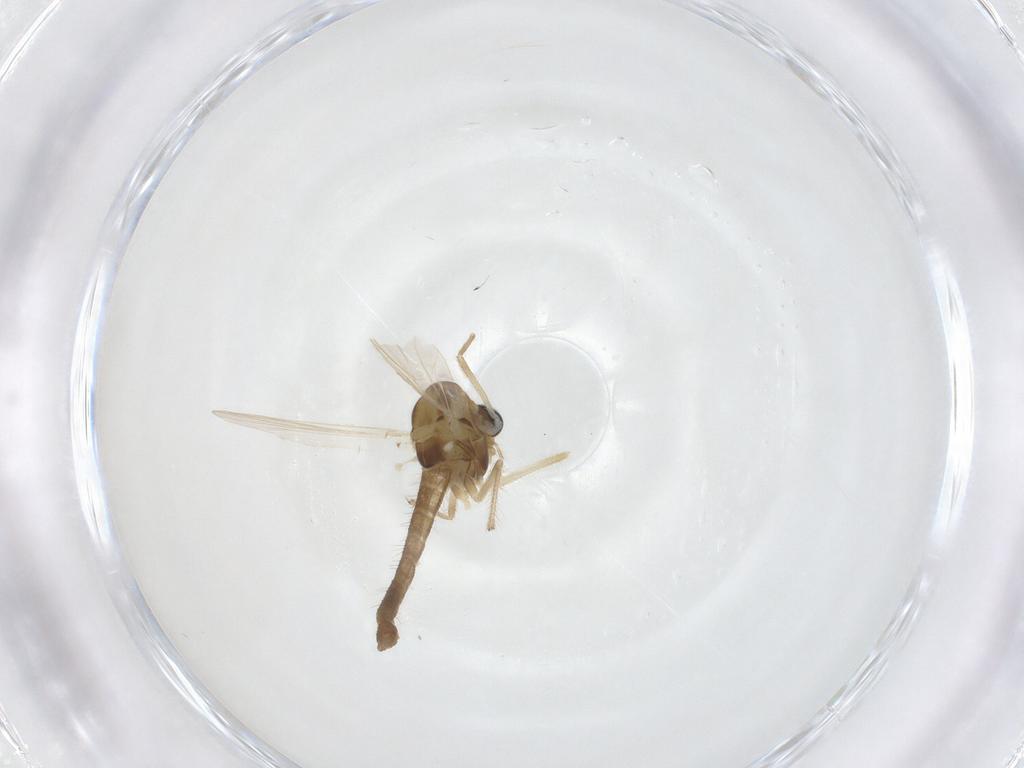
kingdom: Animalia
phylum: Arthropoda
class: Insecta
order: Diptera
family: Chironomidae
